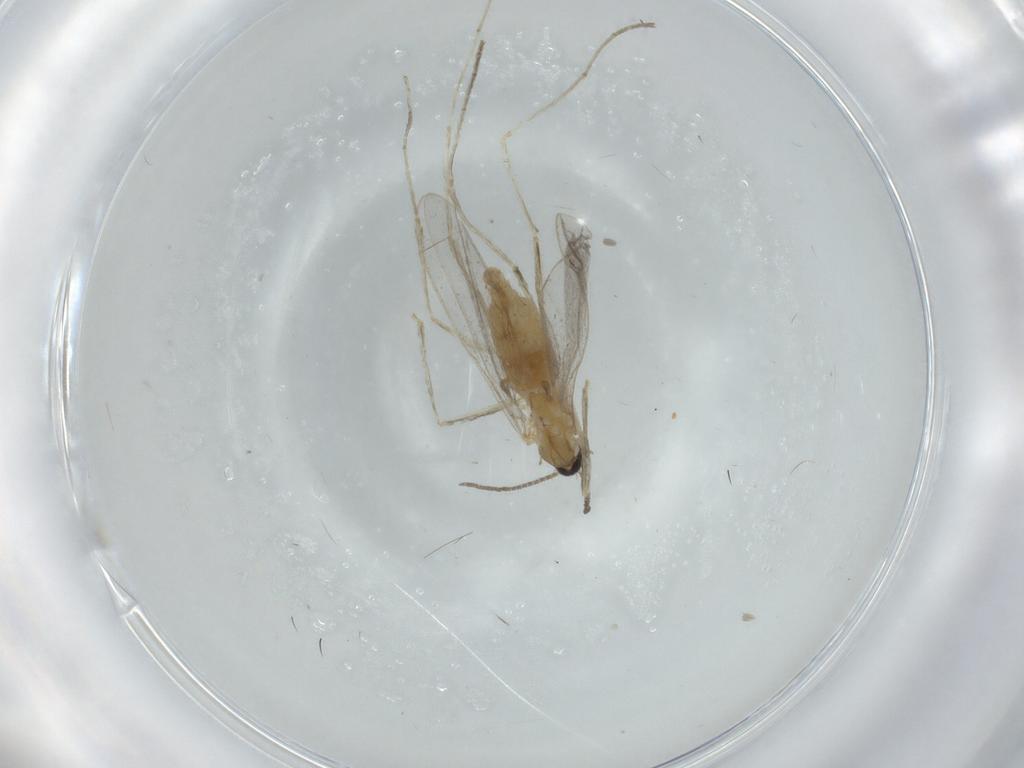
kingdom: Animalia
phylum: Arthropoda
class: Insecta
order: Diptera
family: Cecidomyiidae
